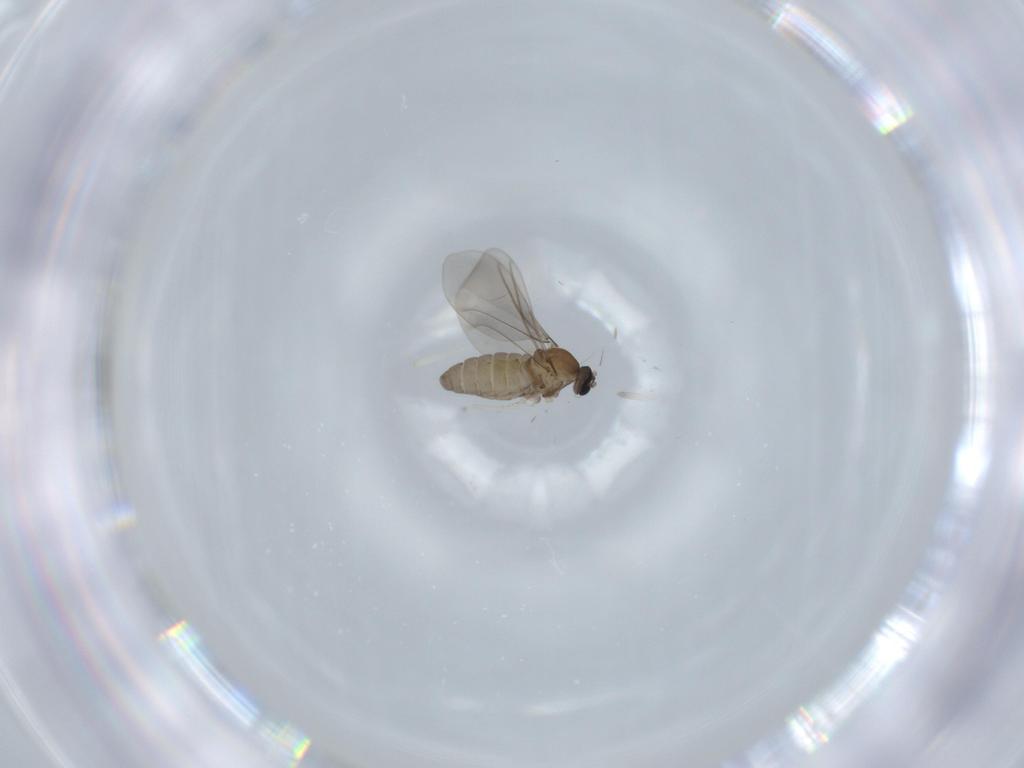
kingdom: Animalia
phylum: Arthropoda
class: Insecta
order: Diptera
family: Cecidomyiidae
